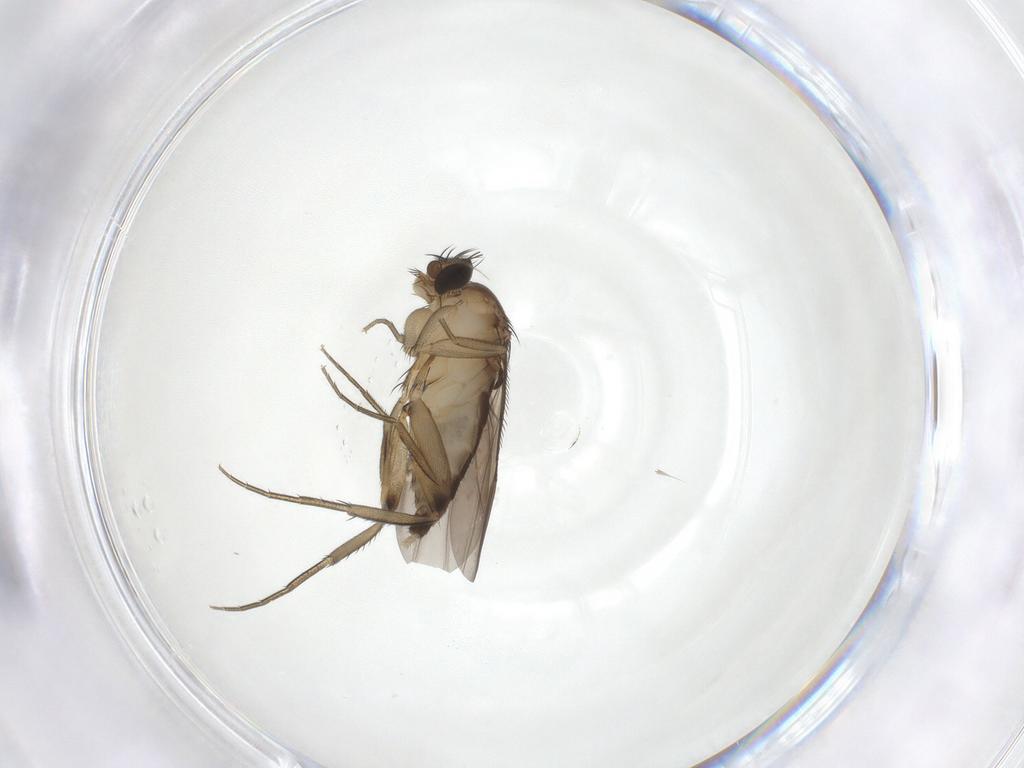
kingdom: Animalia
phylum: Arthropoda
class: Insecta
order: Diptera
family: Phoridae
